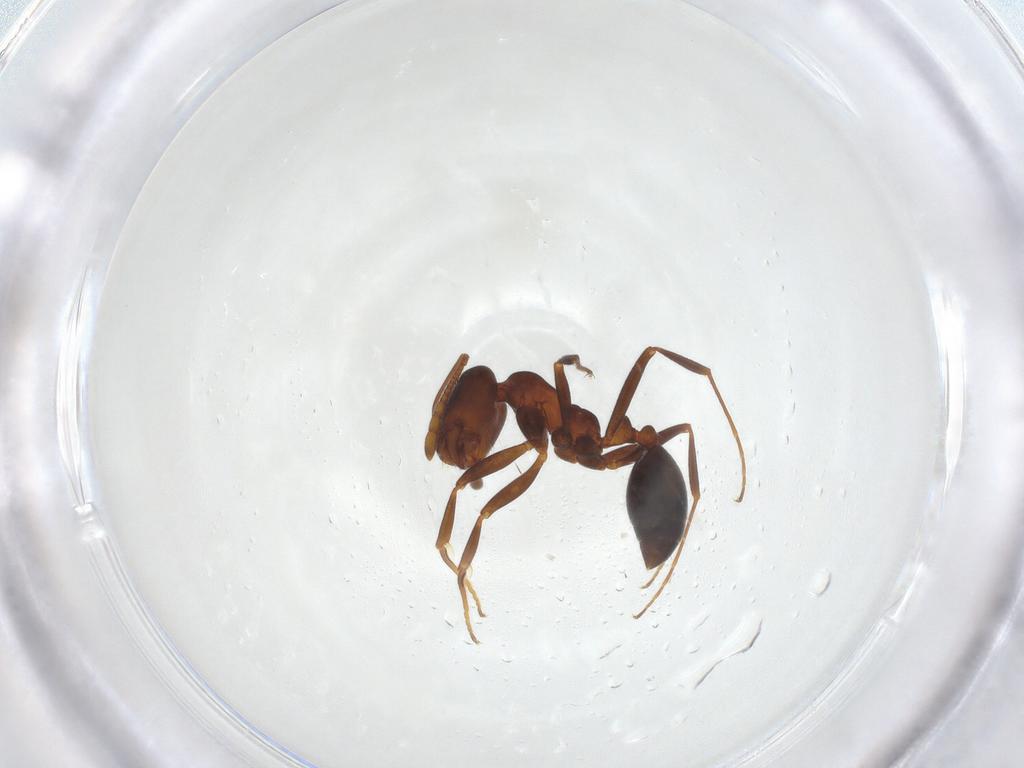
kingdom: Animalia
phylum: Arthropoda
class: Insecta
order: Hymenoptera
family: Formicidae
